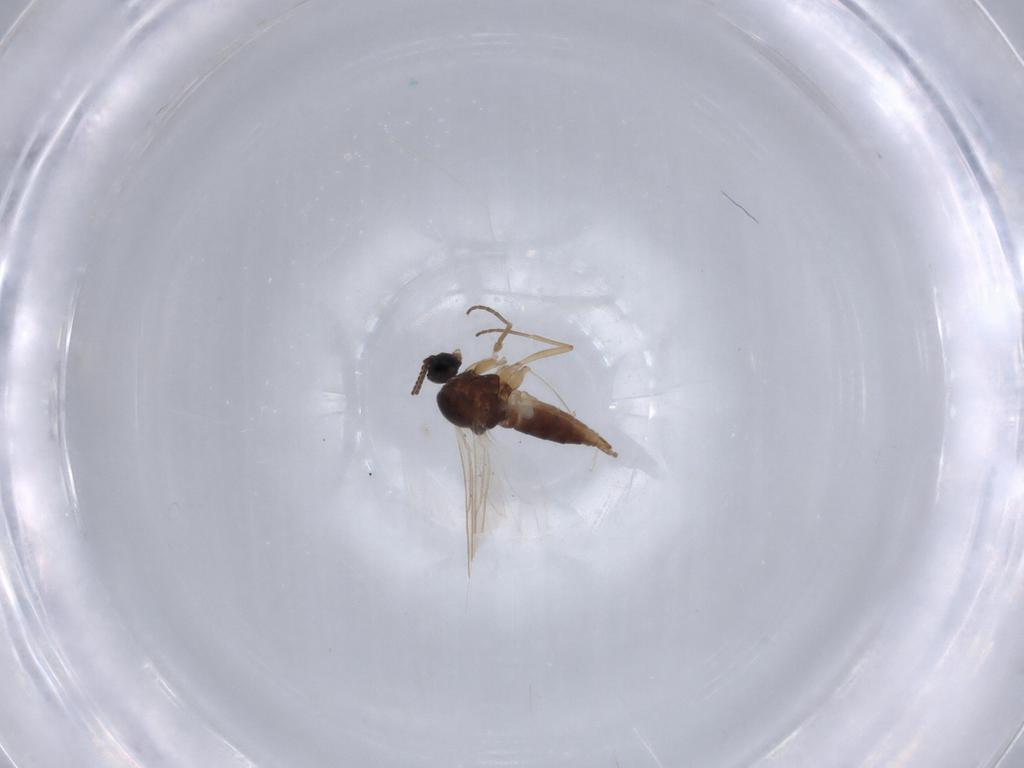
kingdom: Animalia
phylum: Arthropoda
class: Insecta
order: Diptera
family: Sciaridae
